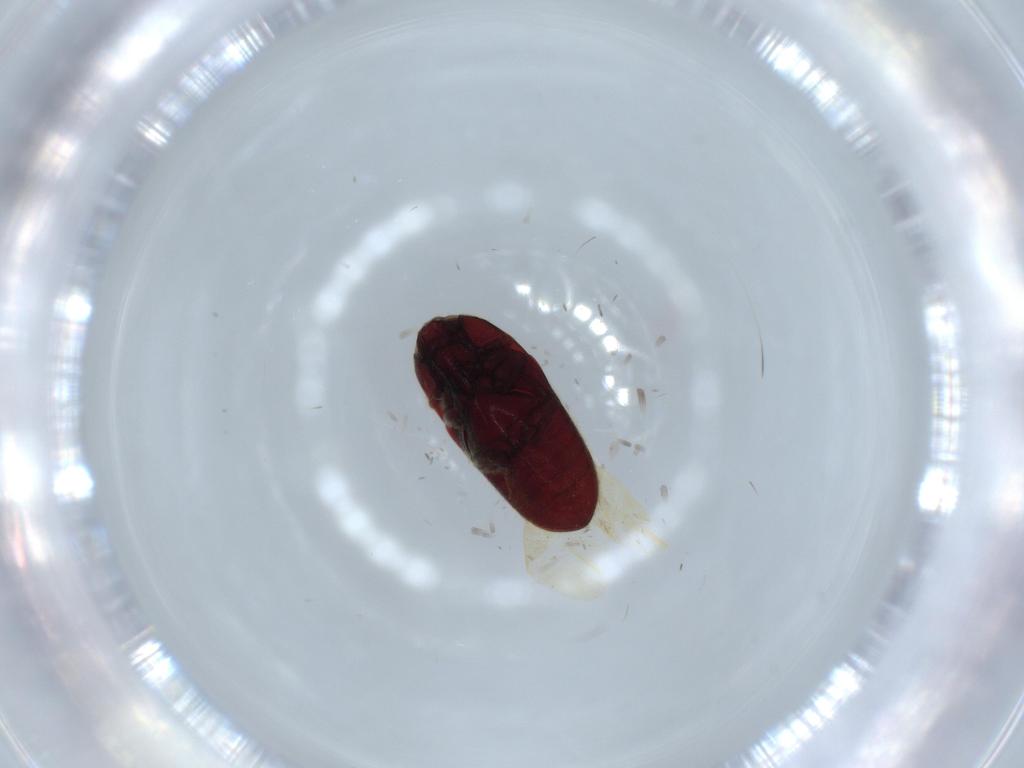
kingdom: Animalia
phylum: Arthropoda
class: Insecta
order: Coleoptera
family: Throscidae
